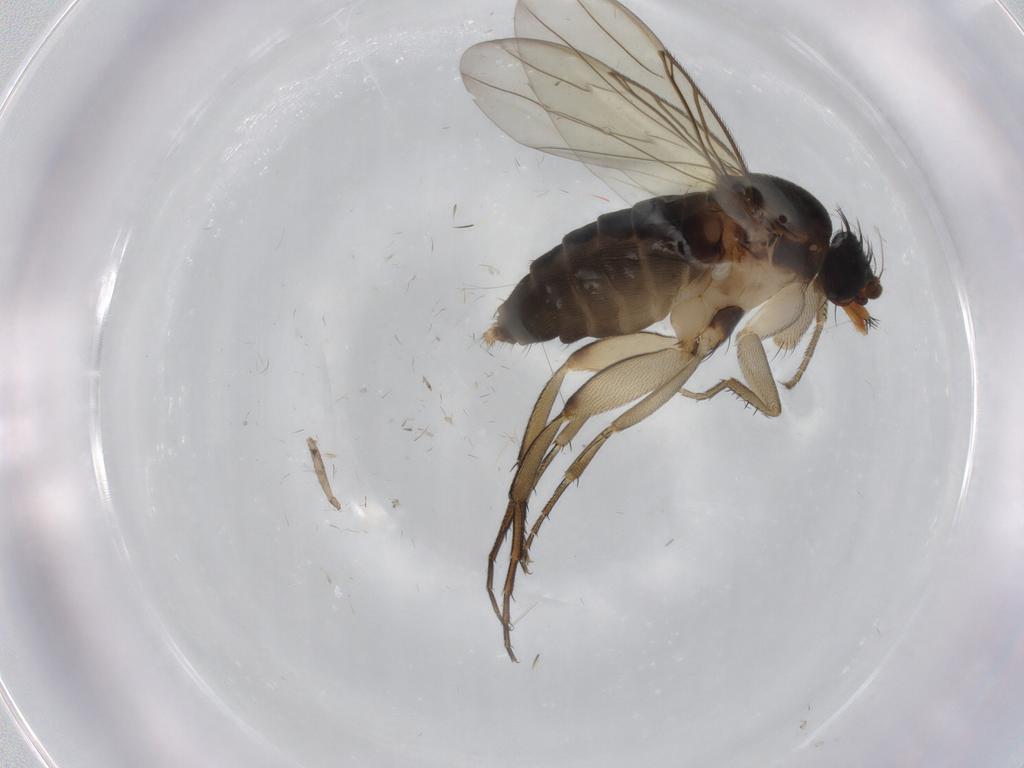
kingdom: Animalia
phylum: Arthropoda
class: Insecta
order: Diptera
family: Phoridae
